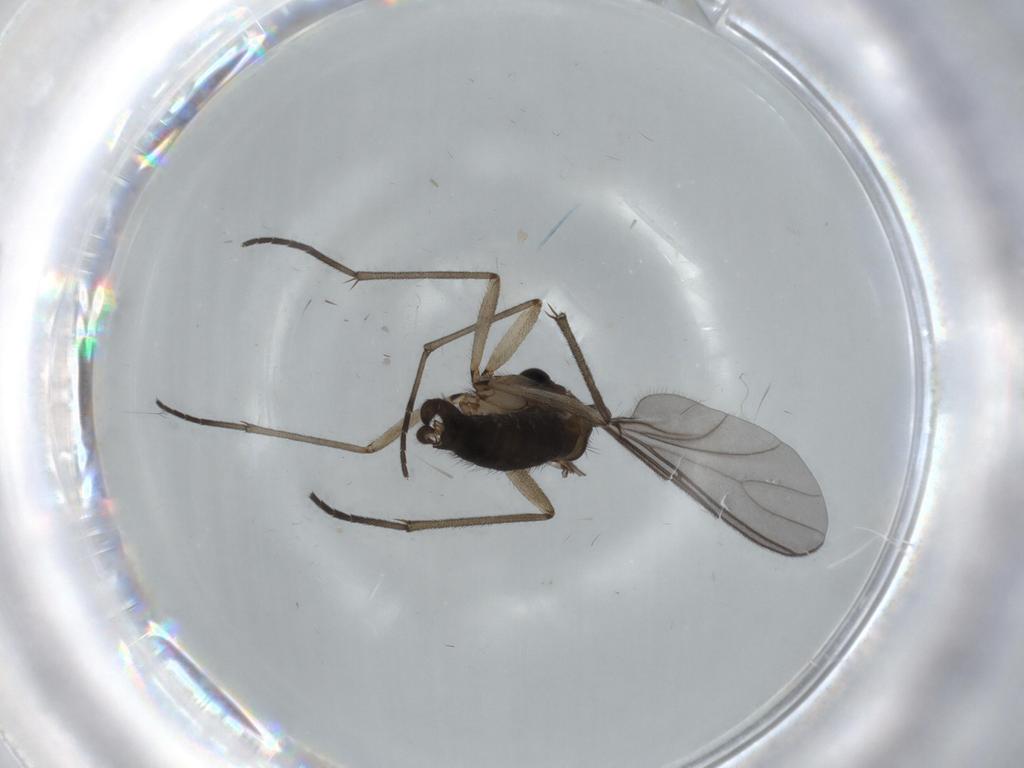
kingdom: Animalia
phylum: Arthropoda
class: Insecta
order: Diptera
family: Sciaridae
